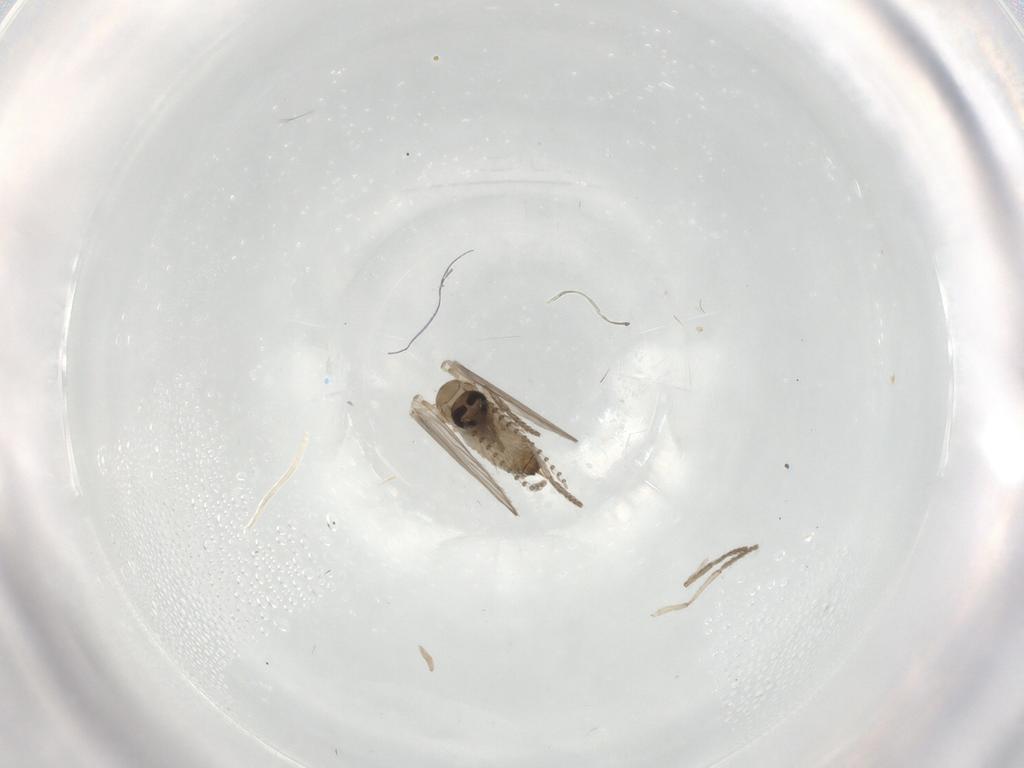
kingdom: Animalia
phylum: Arthropoda
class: Insecta
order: Diptera
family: Psychodidae
